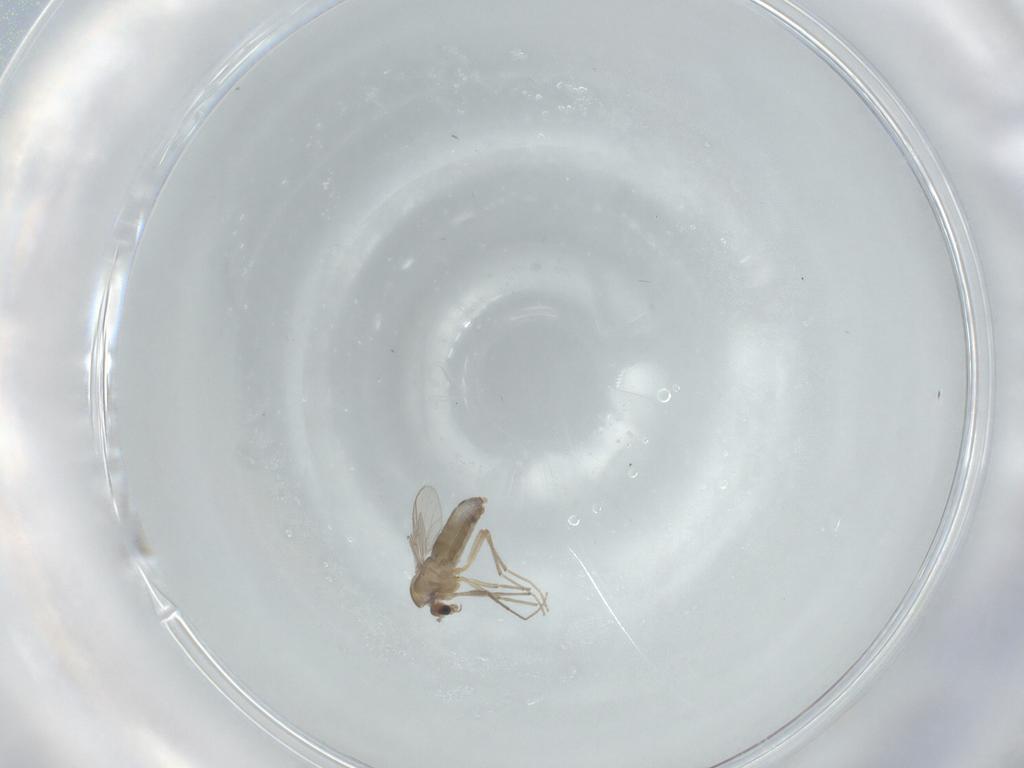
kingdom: Animalia
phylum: Arthropoda
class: Insecta
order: Diptera
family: Chironomidae
